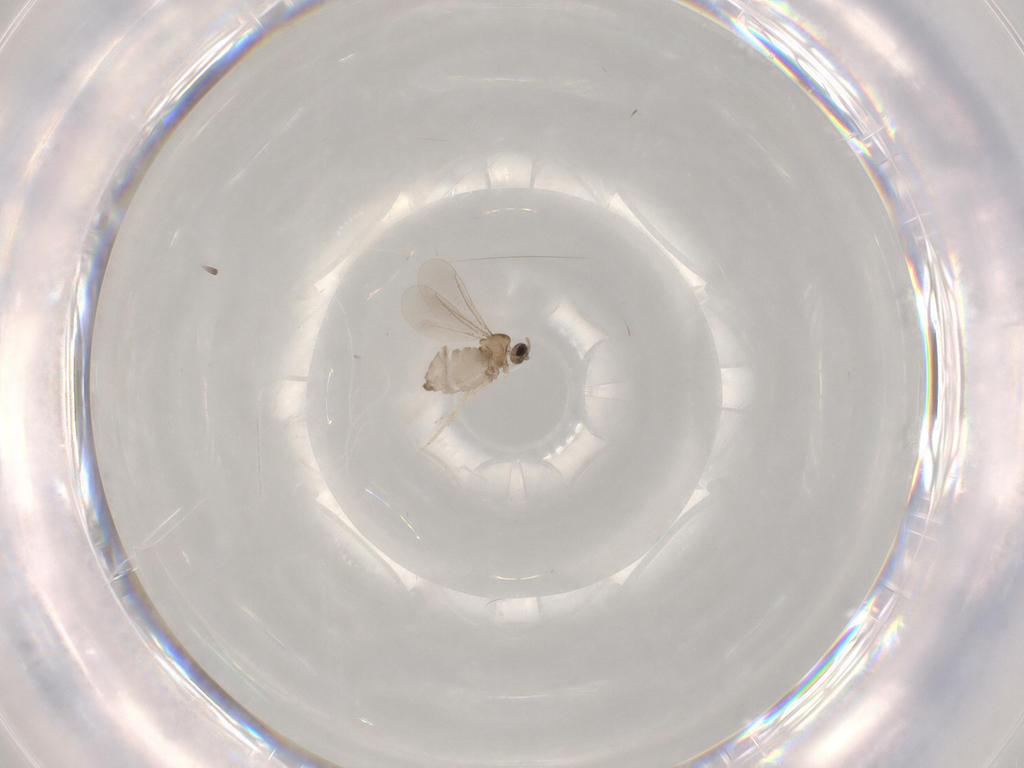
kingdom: Animalia
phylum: Arthropoda
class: Insecta
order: Diptera
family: Cecidomyiidae
